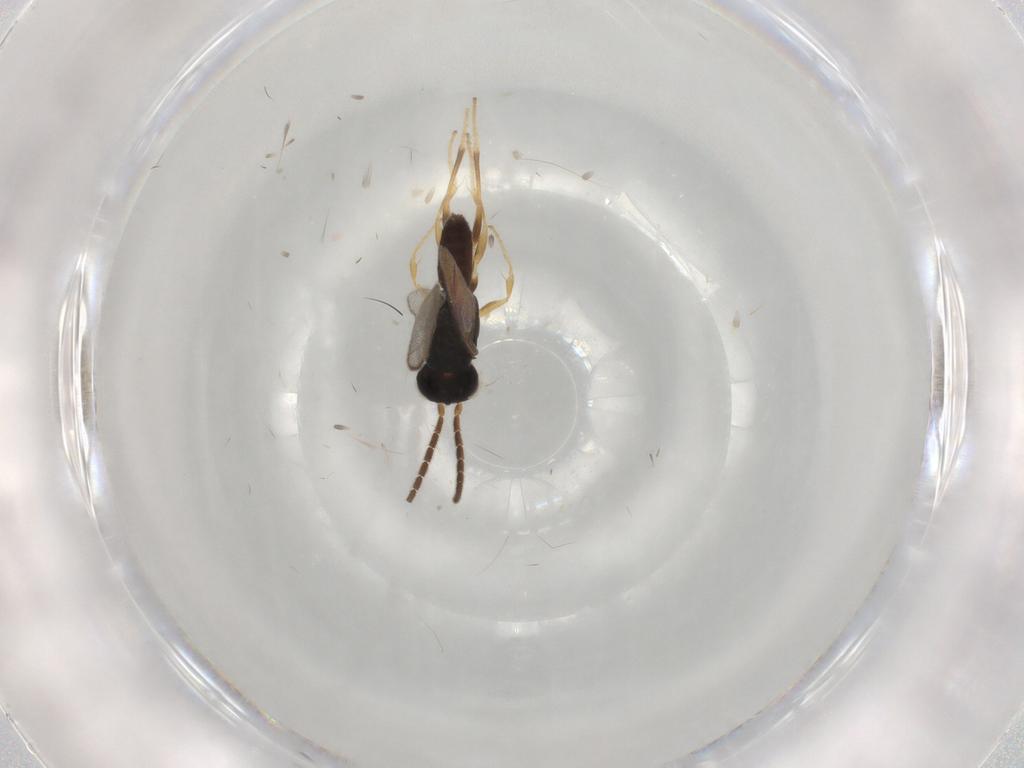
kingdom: Animalia
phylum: Arthropoda
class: Insecta
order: Hymenoptera
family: Dryinidae
